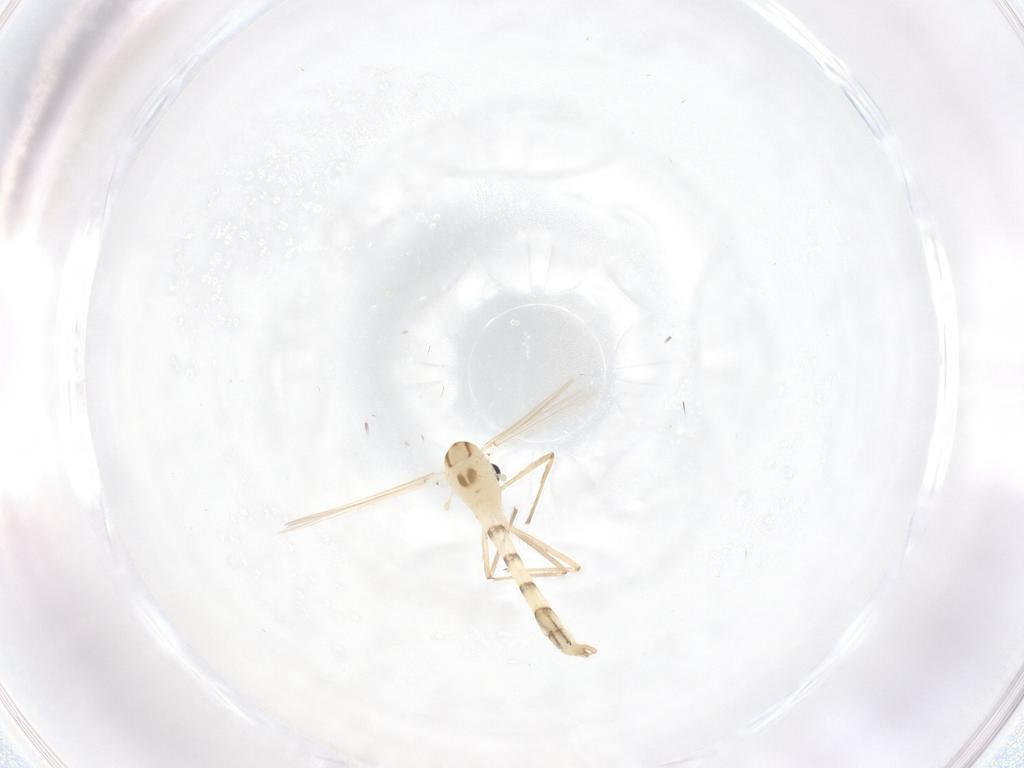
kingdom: Animalia
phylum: Arthropoda
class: Insecta
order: Diptera
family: Chironomidae
